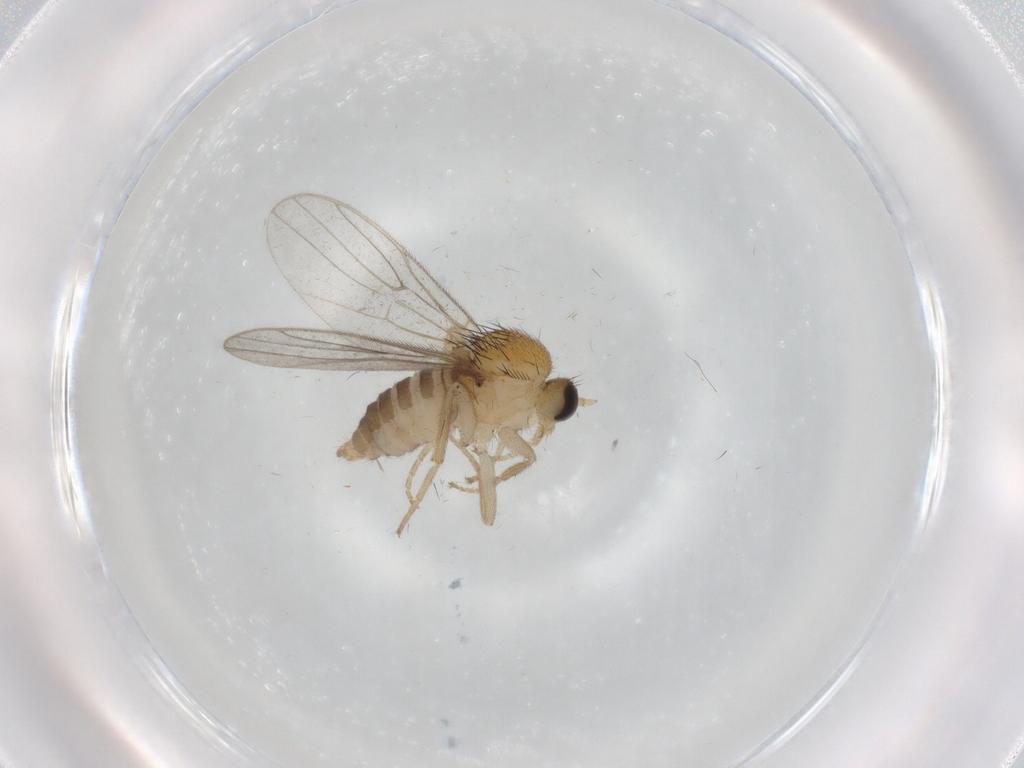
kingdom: Animalia
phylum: Arthropoda
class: Insecta
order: Diptera
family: Hybotidae
